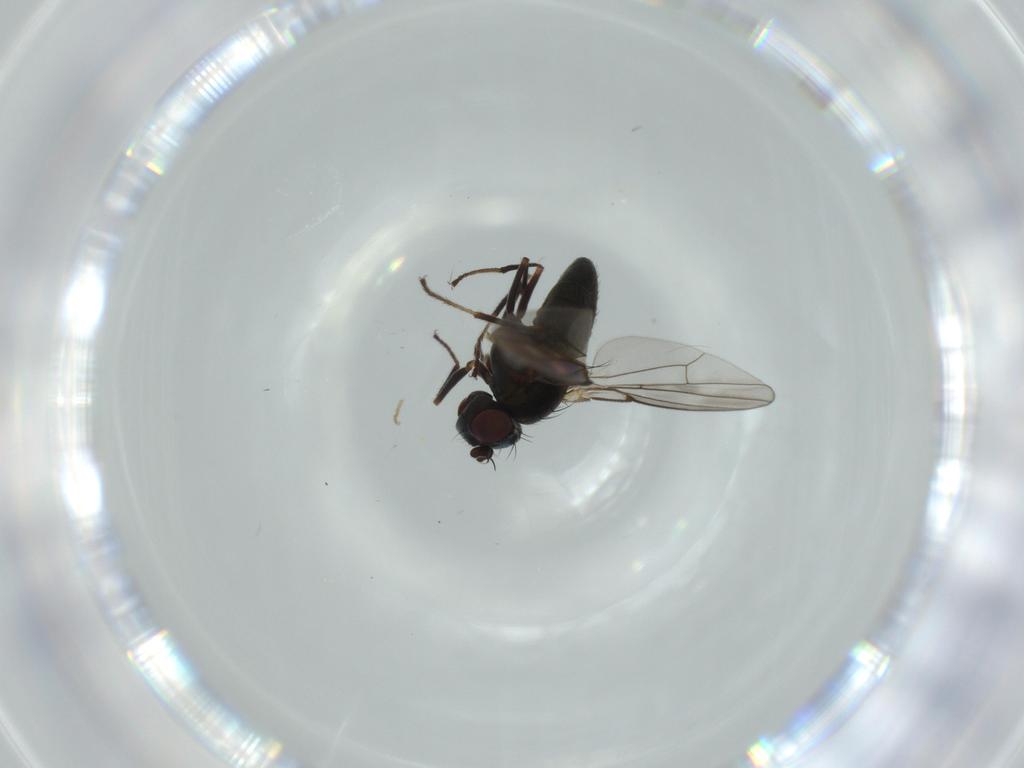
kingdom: Animalia
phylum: Arthropoda
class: Insecta
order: Diptera
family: Ephydridae
